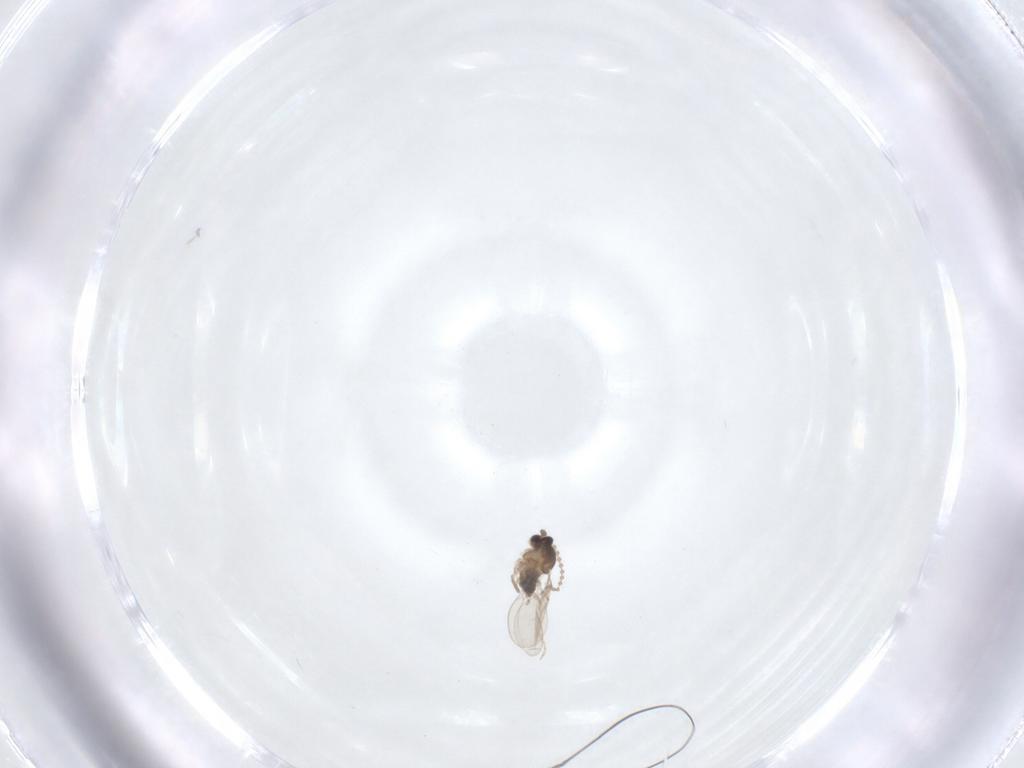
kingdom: Animalia
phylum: Arthropoda
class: Insecta
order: Diptera
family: Cecidomyiidae
